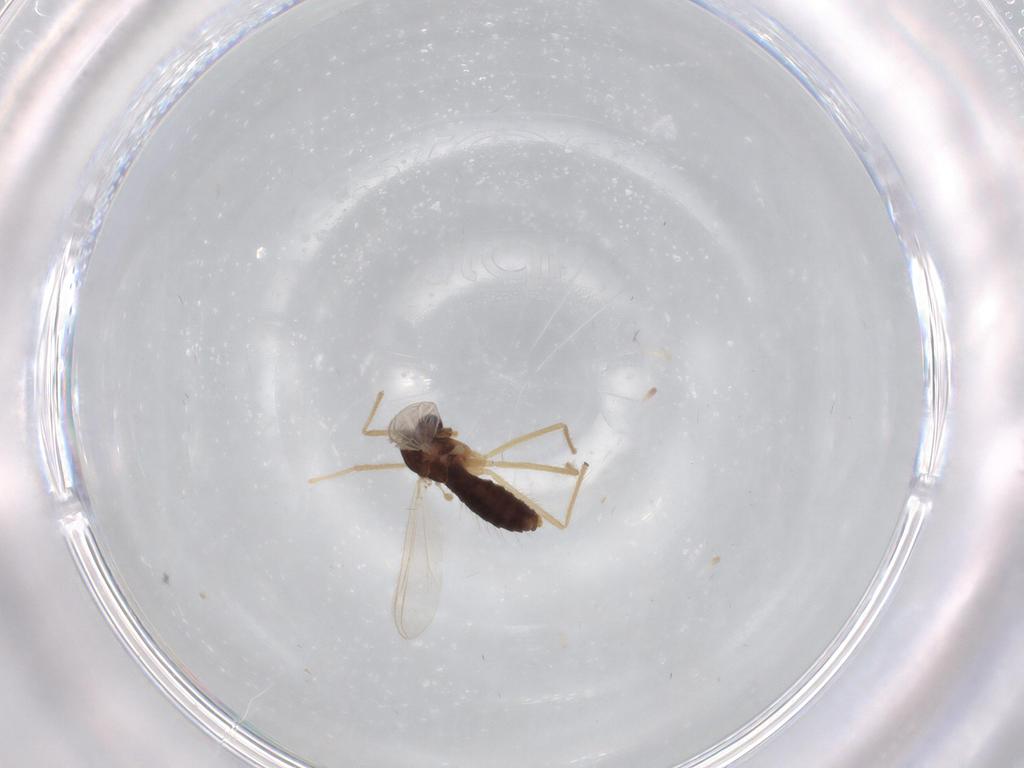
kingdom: Animalia
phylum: Arthropoda
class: Insecta
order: Diptera
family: Chironomidae
